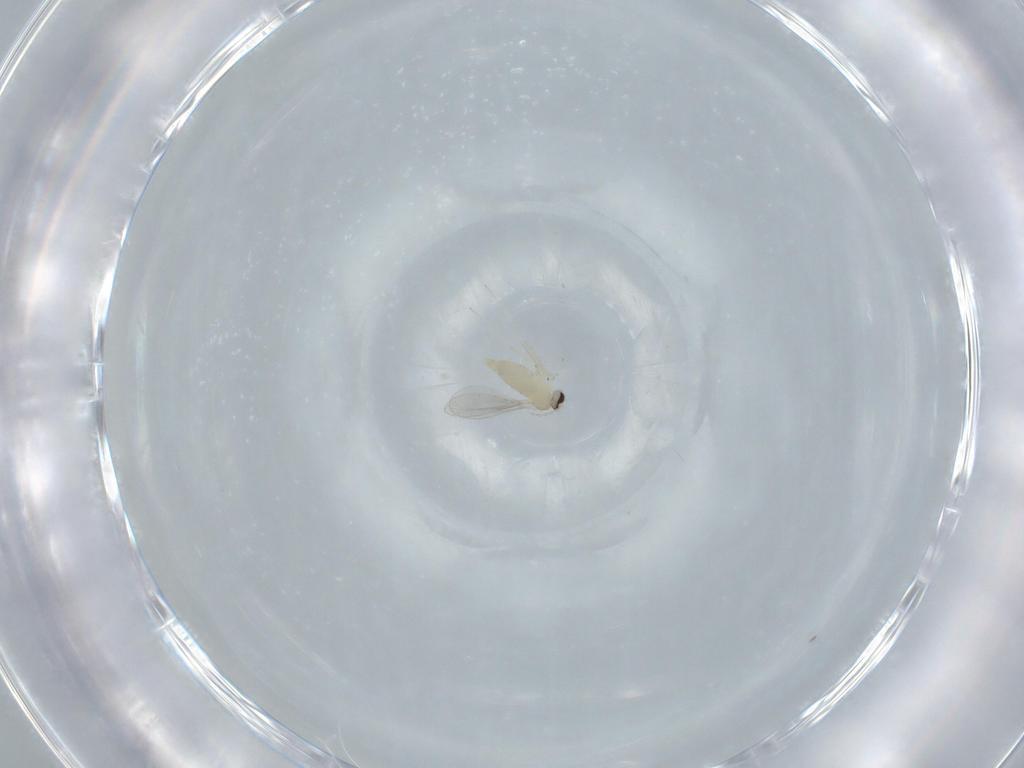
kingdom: Animalia
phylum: Arthropoda
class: Insecta
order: Diptera
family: Cecidomyiidae
